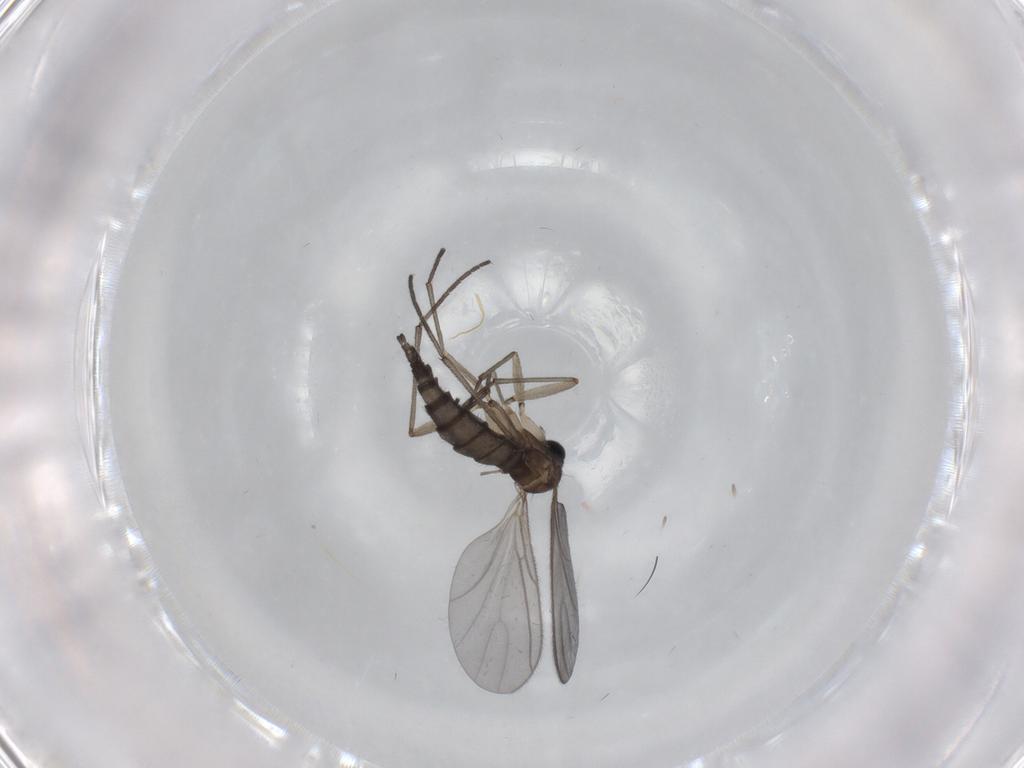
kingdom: Animalia
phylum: Arthropoda
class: Insecta
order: Diptera
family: Sciaridae
